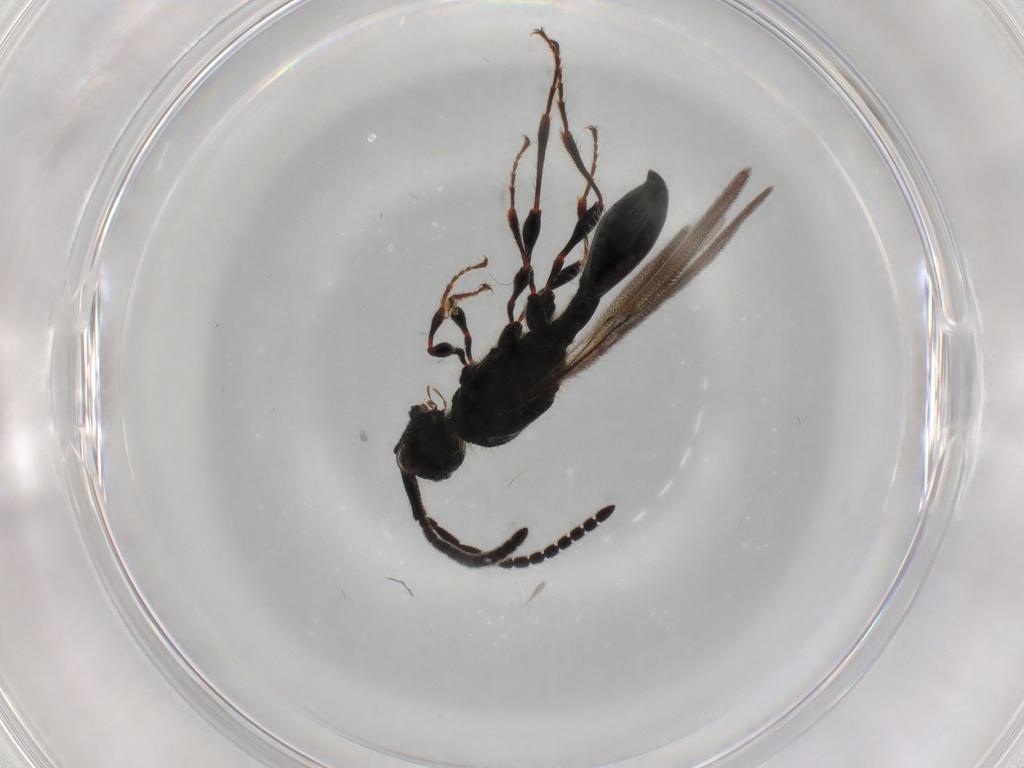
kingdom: Animalia
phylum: Arthropoda
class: Insecta
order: Hymenoptera
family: Diapriidae
